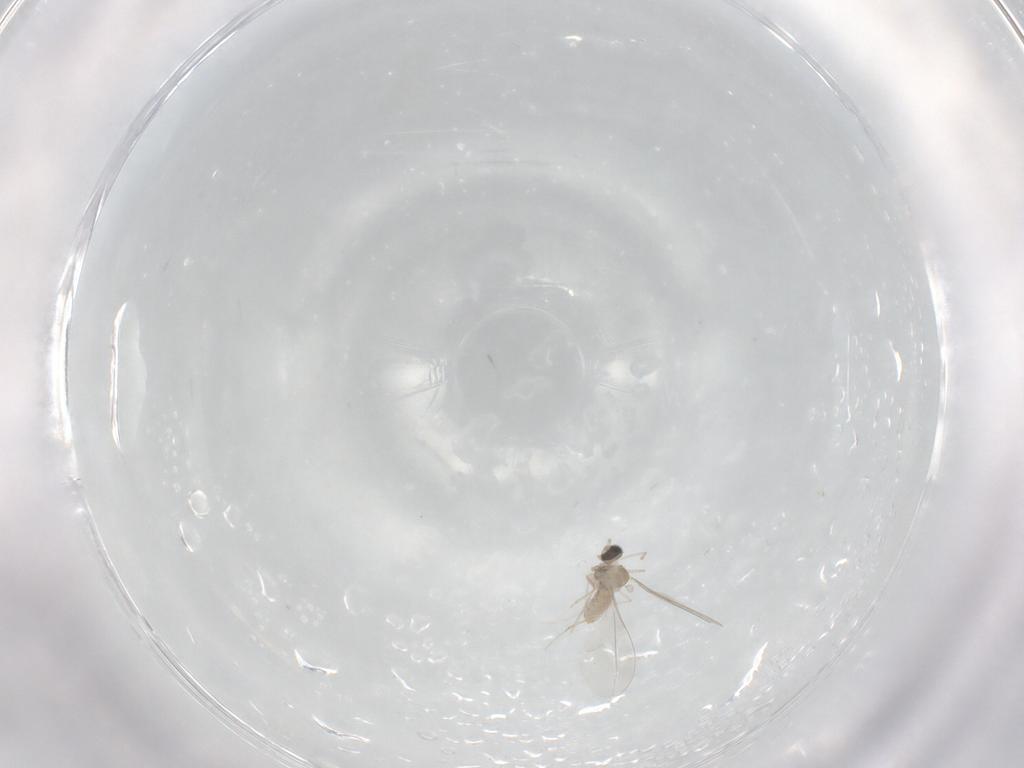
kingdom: Animalia
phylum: Arthropoda
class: Insecta
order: Diptera
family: Cecidomyiidae
